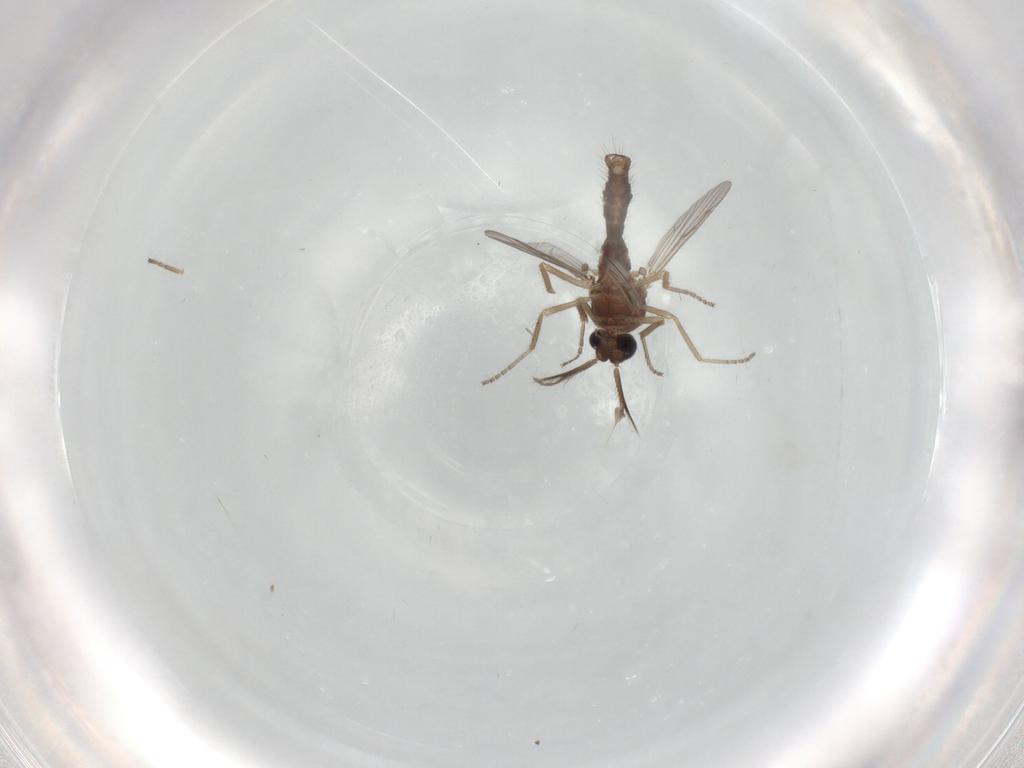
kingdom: Animalia
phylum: Arthropoda
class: Insecta
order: Diptera
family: Ceratopogonidae
